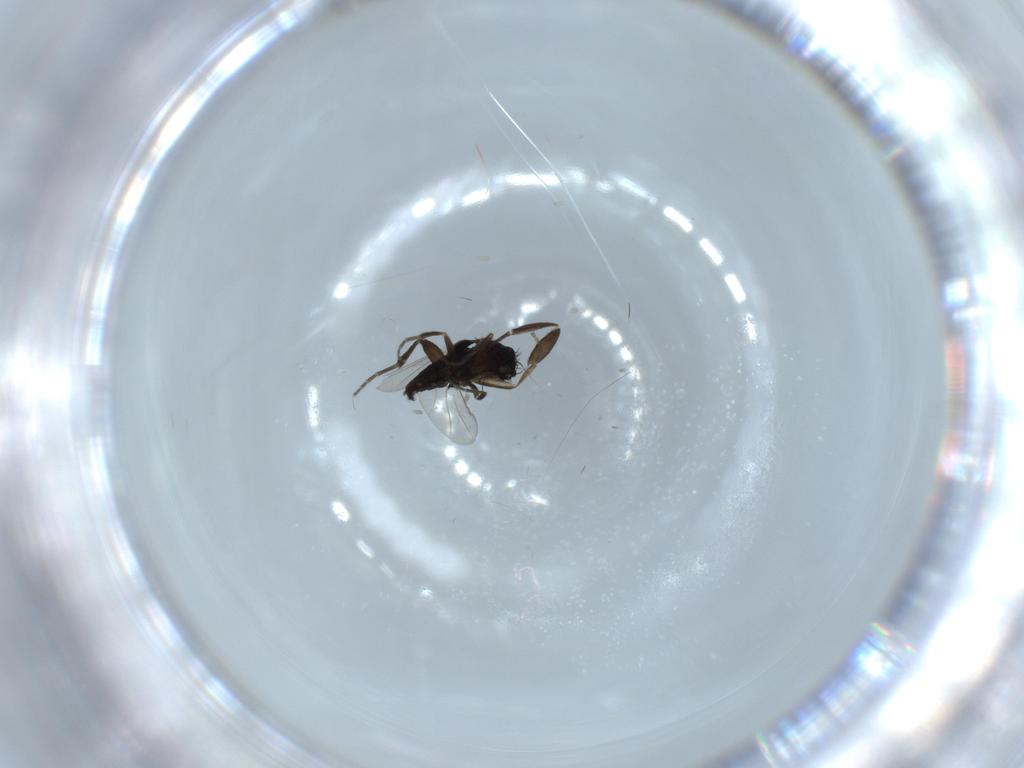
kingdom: Animalia
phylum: Arthropoda
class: Insecta
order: Diptera
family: Phoridae
